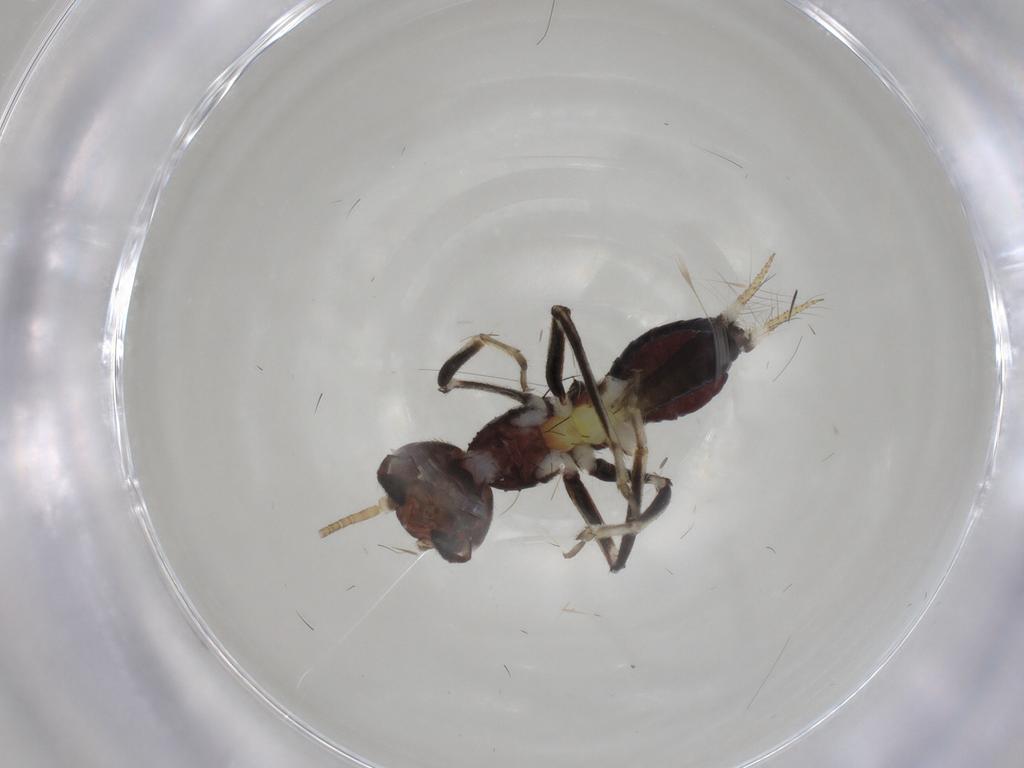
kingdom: Animalia
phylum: Arthropoda
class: Insecta
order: Orthoptera
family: Trigonidiidae
